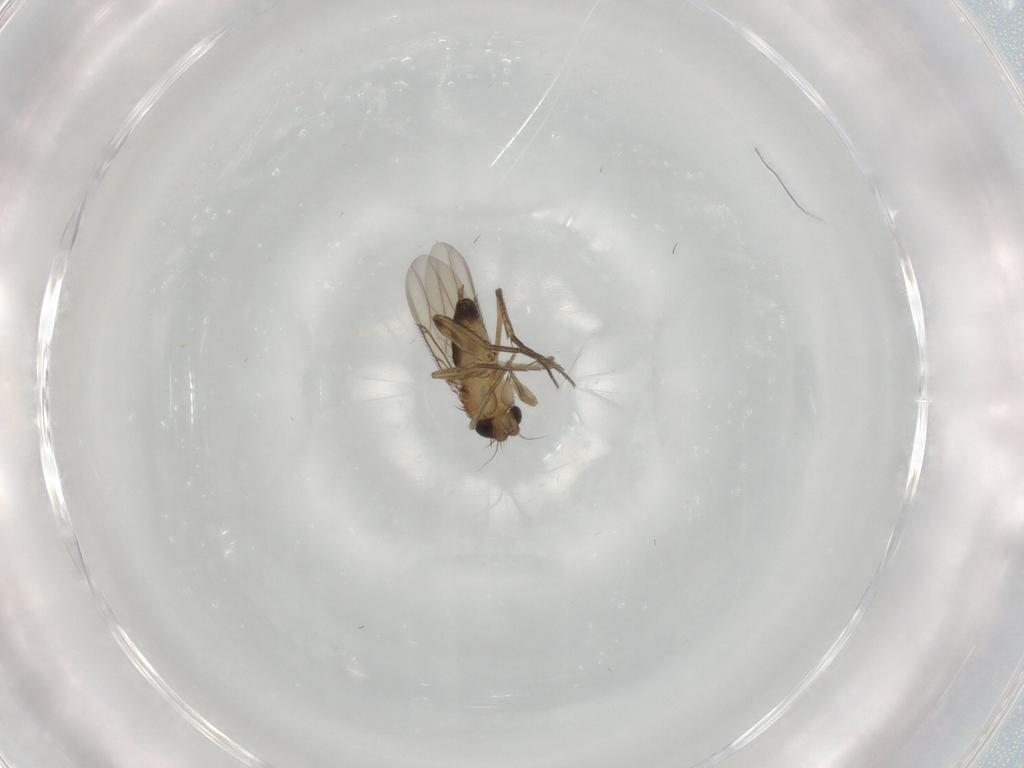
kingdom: Animalia
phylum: Arthropoda
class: Insecta
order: Diptera
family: Phoridae
